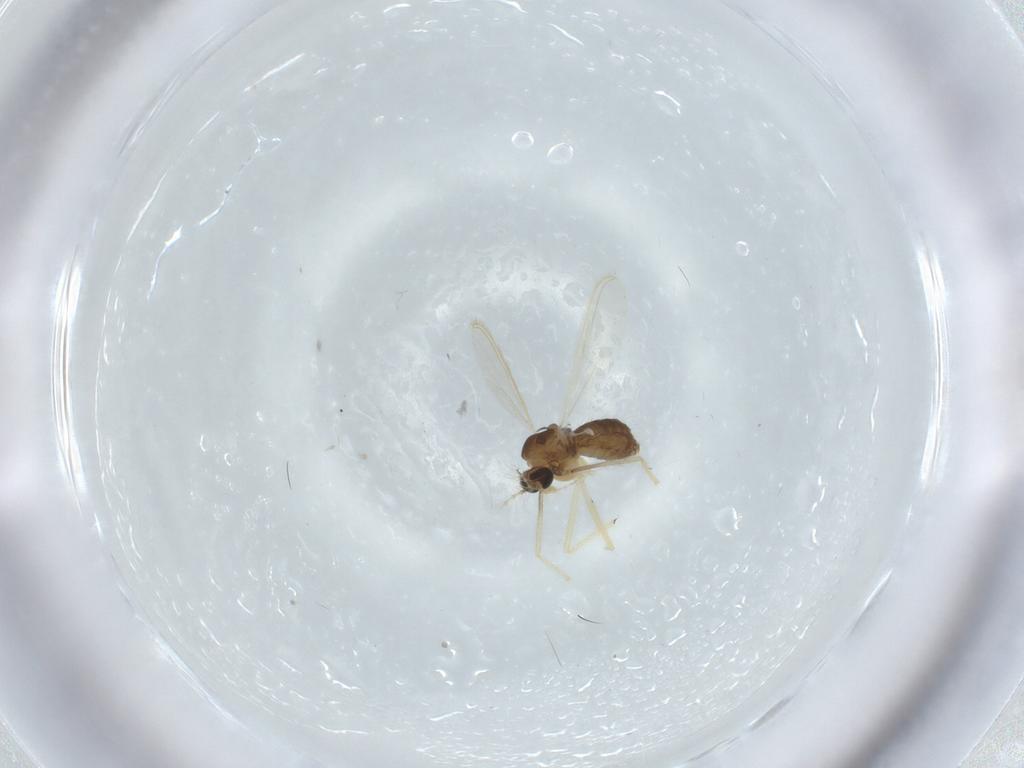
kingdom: Animalia
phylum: Arthropoda
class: Insecta
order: Diptera
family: Chironomidae
